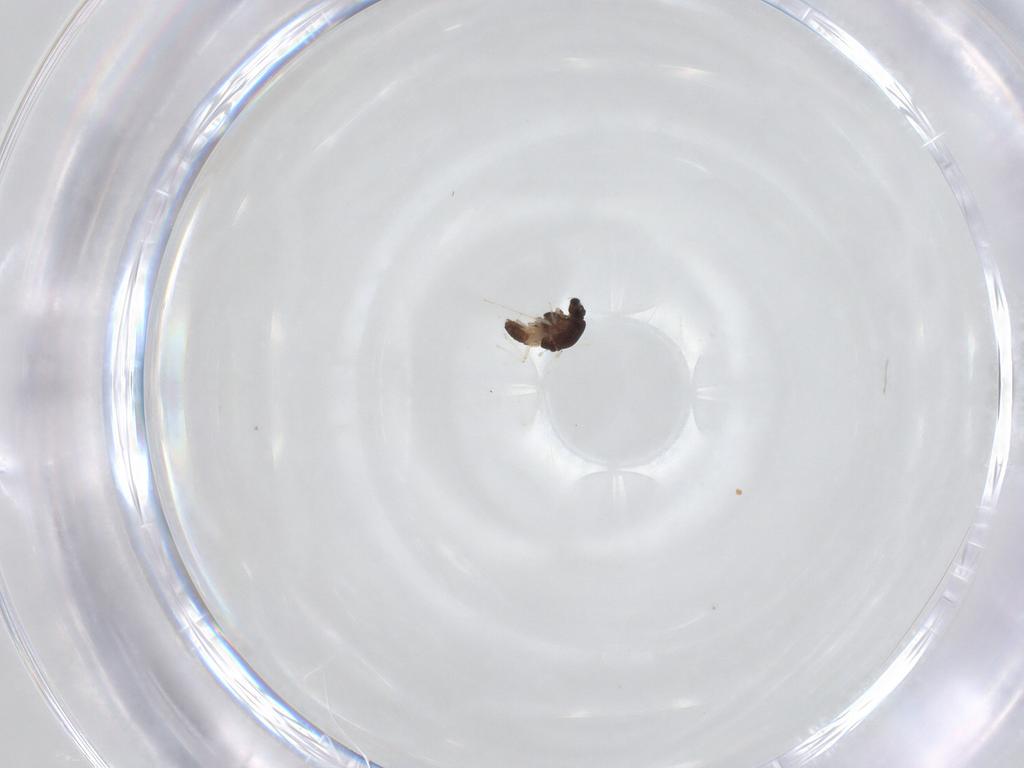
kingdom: Animalia
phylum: Arthropoda
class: Insecta
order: Diptera
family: Chironomidae
